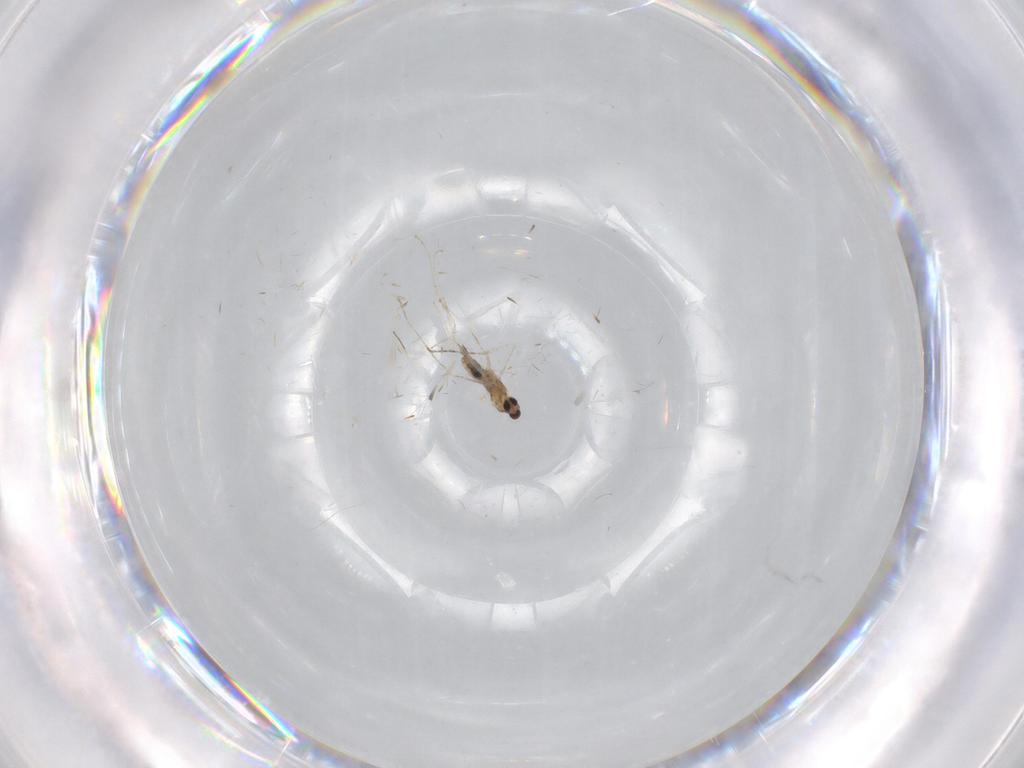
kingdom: Animalia
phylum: Arthropoda
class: Insecta
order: Diptera
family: Cecidomyiidae
